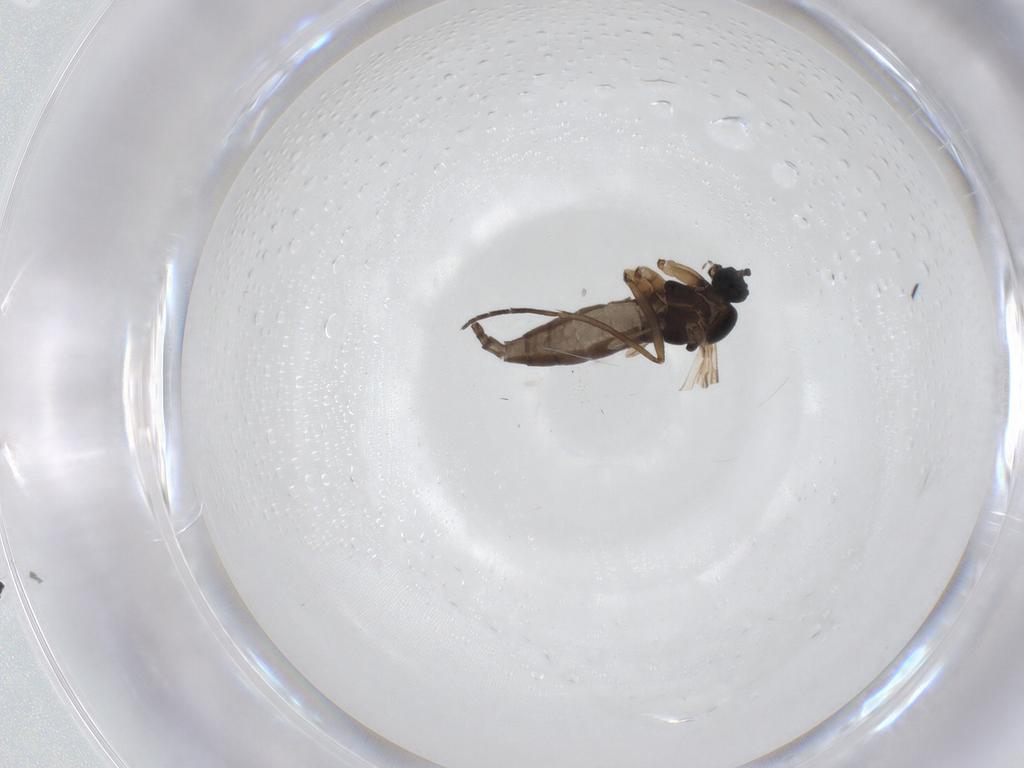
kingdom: Animalia
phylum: Arthropoda
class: Insecta
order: Diptera
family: Sciaridae
